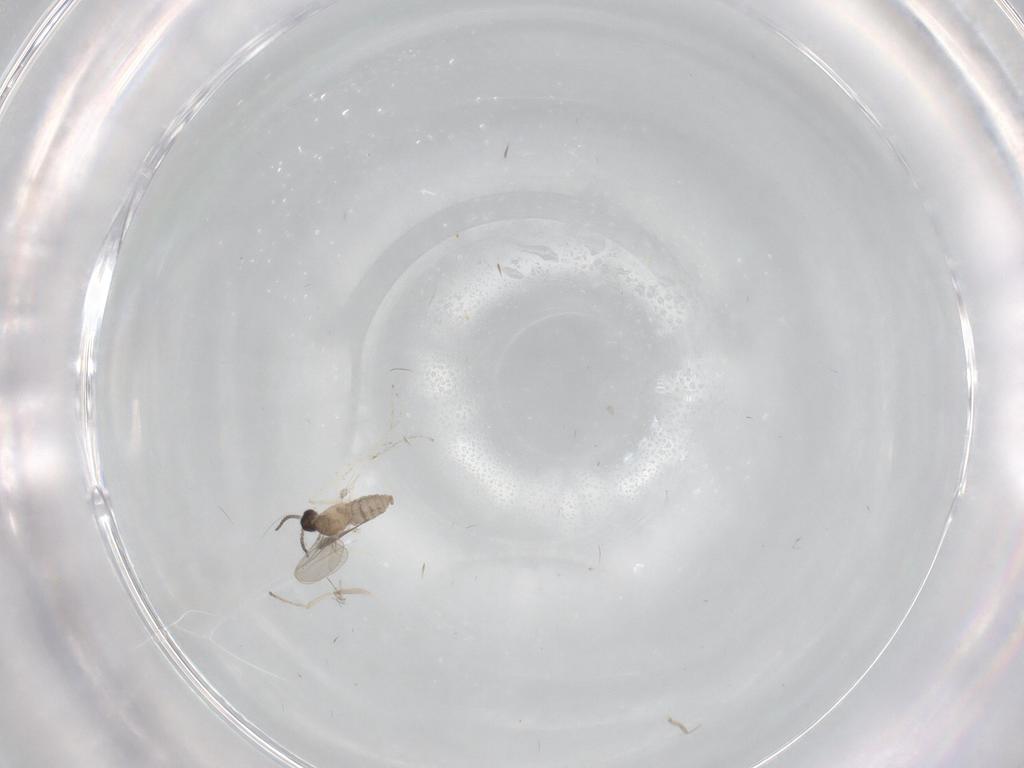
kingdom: Animalia
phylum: Arthropoda
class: Insecta
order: Diptera
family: Cecidomyiidae
